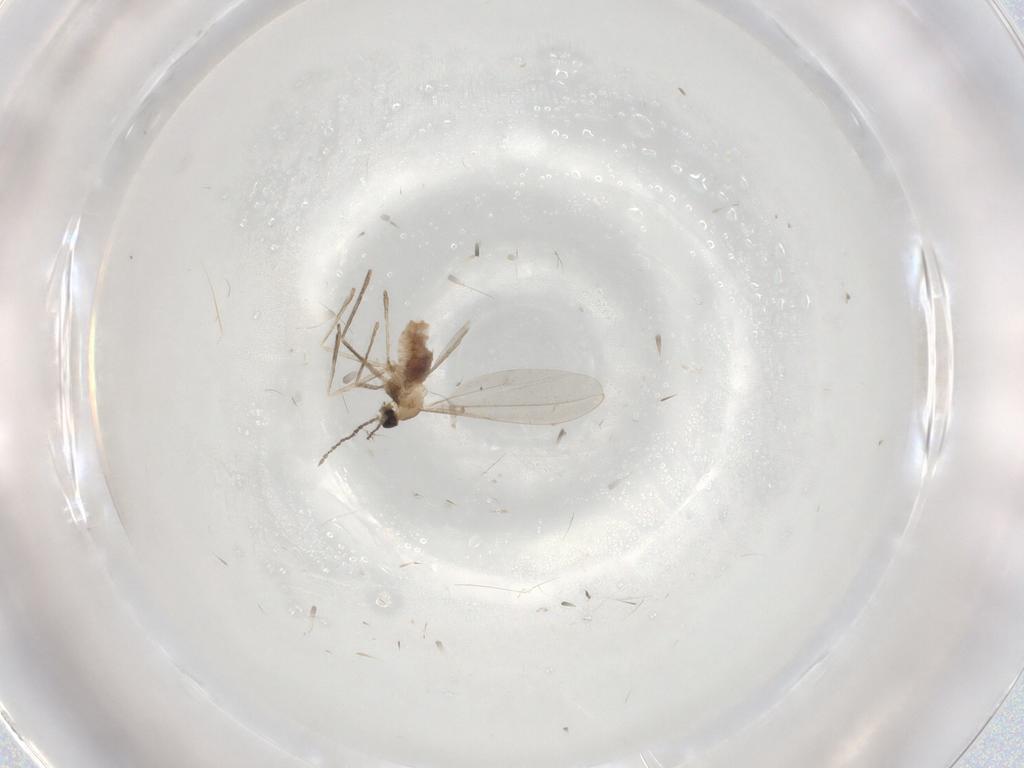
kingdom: Animalia
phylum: Arthropoda
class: Insecta
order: Diptera
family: Cecidomyiidae
